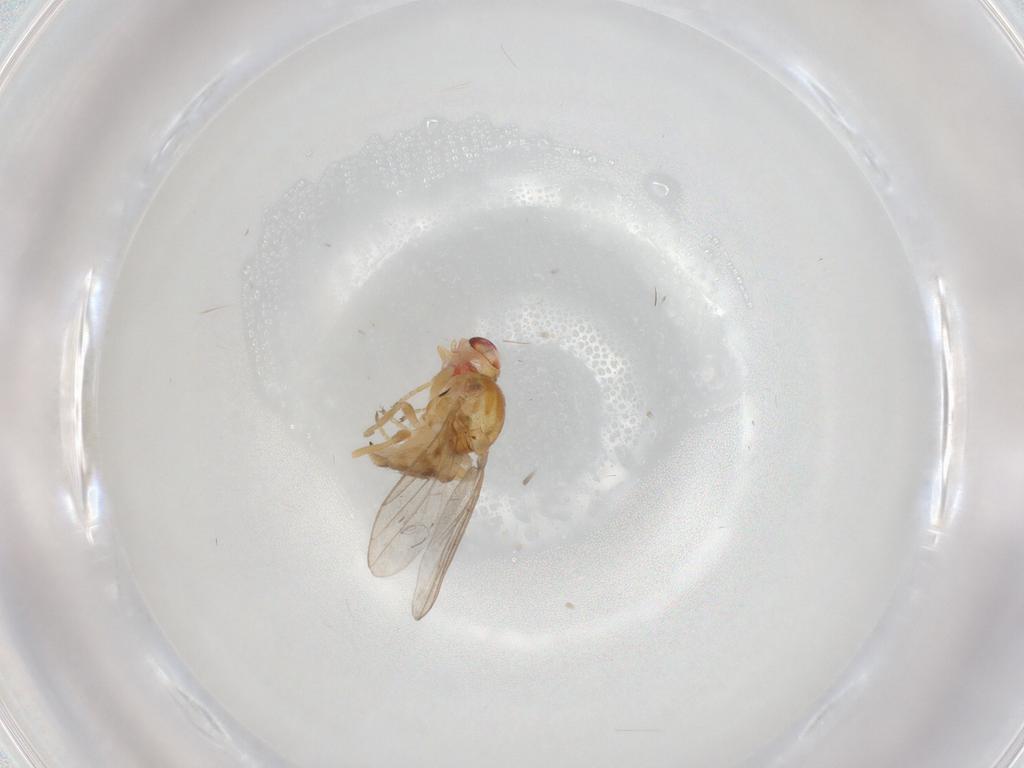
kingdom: Animalia
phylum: Arthropoda
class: Insecta
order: Diptera
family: Chloropidae
